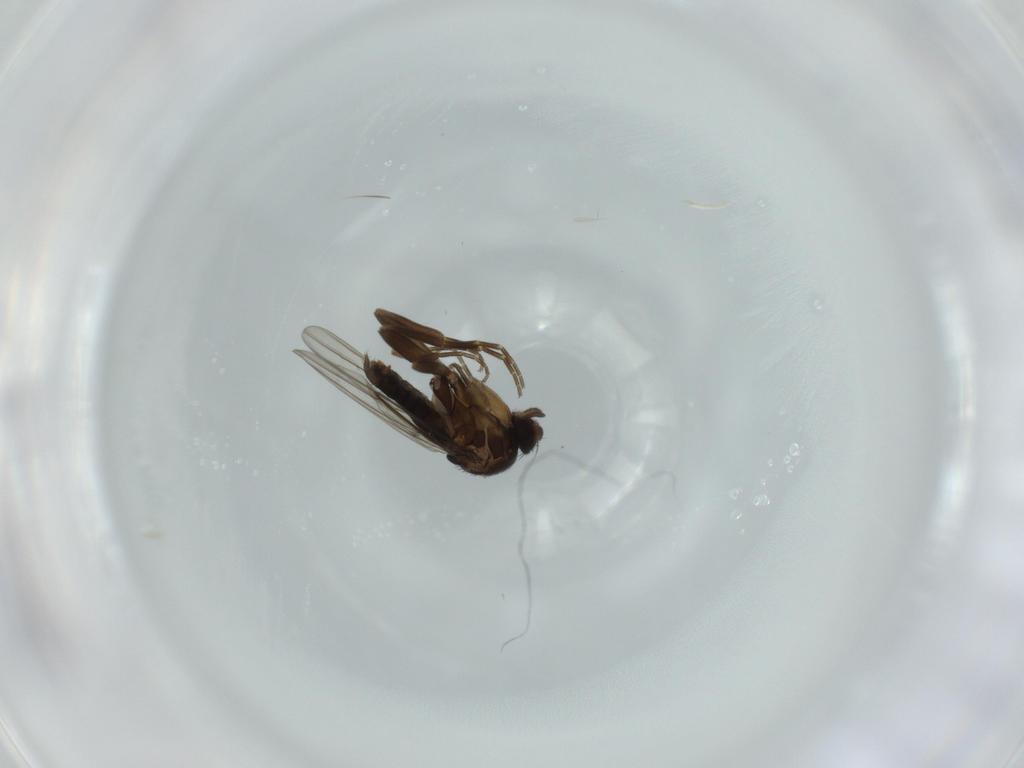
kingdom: Animalia
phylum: Arthropoda
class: Insecta
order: Diptera
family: Phoridae
